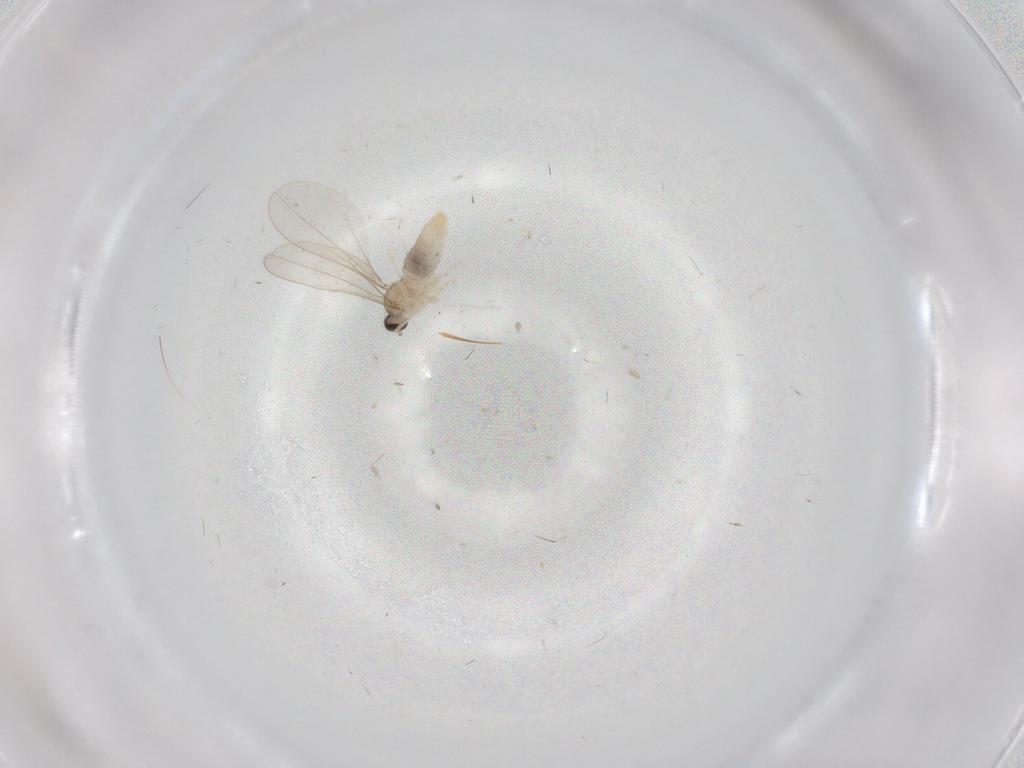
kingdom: Animalia
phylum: Arthropoda
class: Insecta
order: Diptera
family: Cecidomyiidae
